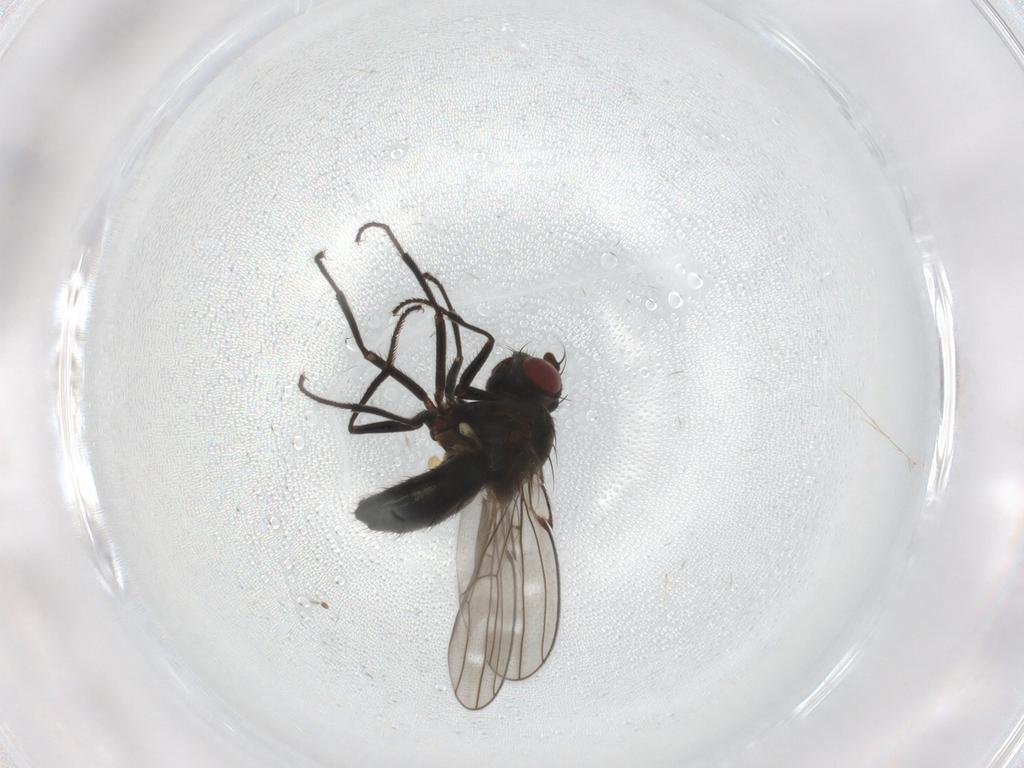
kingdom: Animalia
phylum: Arthropoda
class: Insecta
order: Diptera
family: Ephydridae
